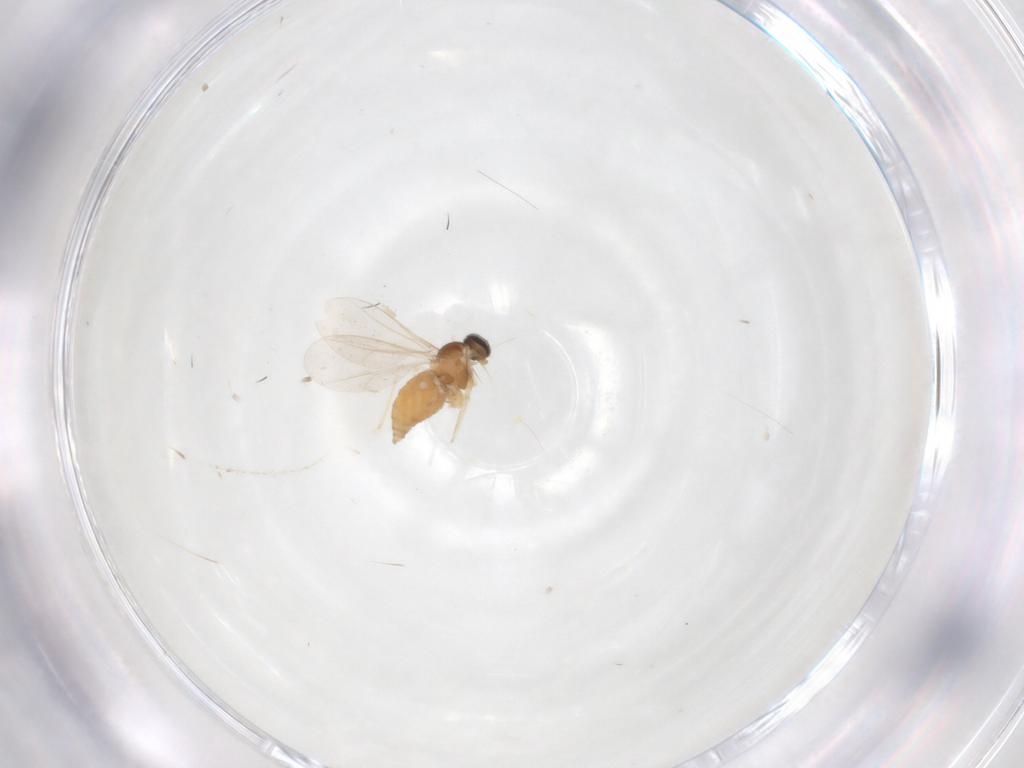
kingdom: Animalia
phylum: Arthropoda
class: Insecta
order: Diptera
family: Cecidomyiidae
